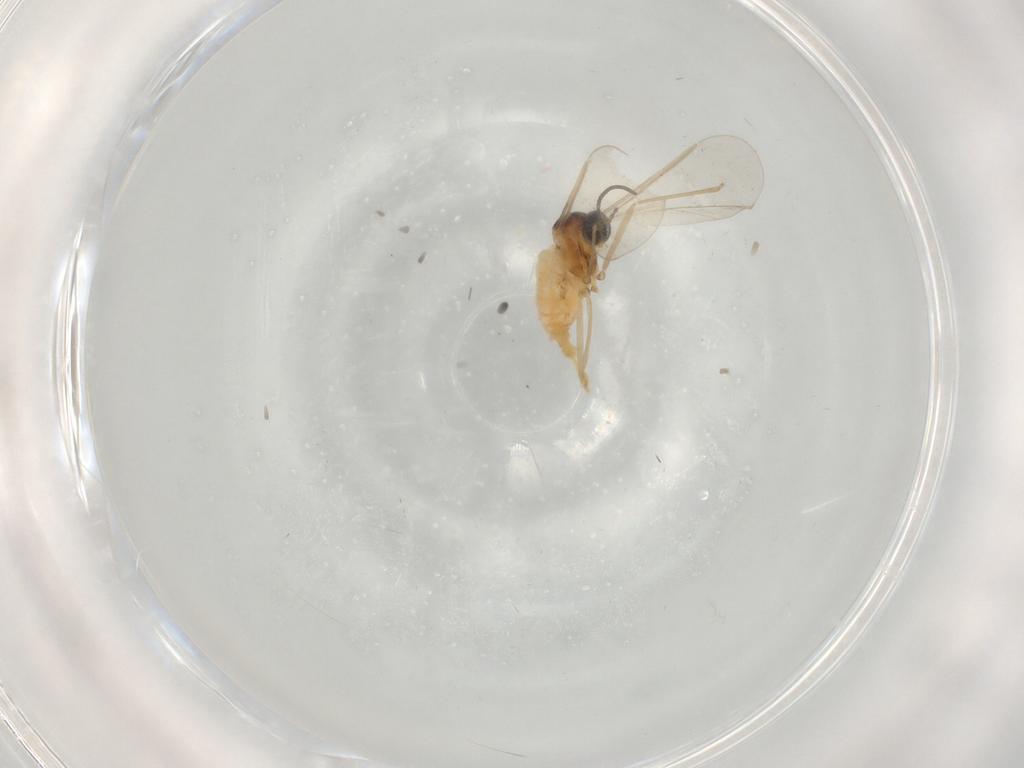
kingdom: Animalia
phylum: Arthropoda
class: Insecta
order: Diptera
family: Cecidomyiidae
